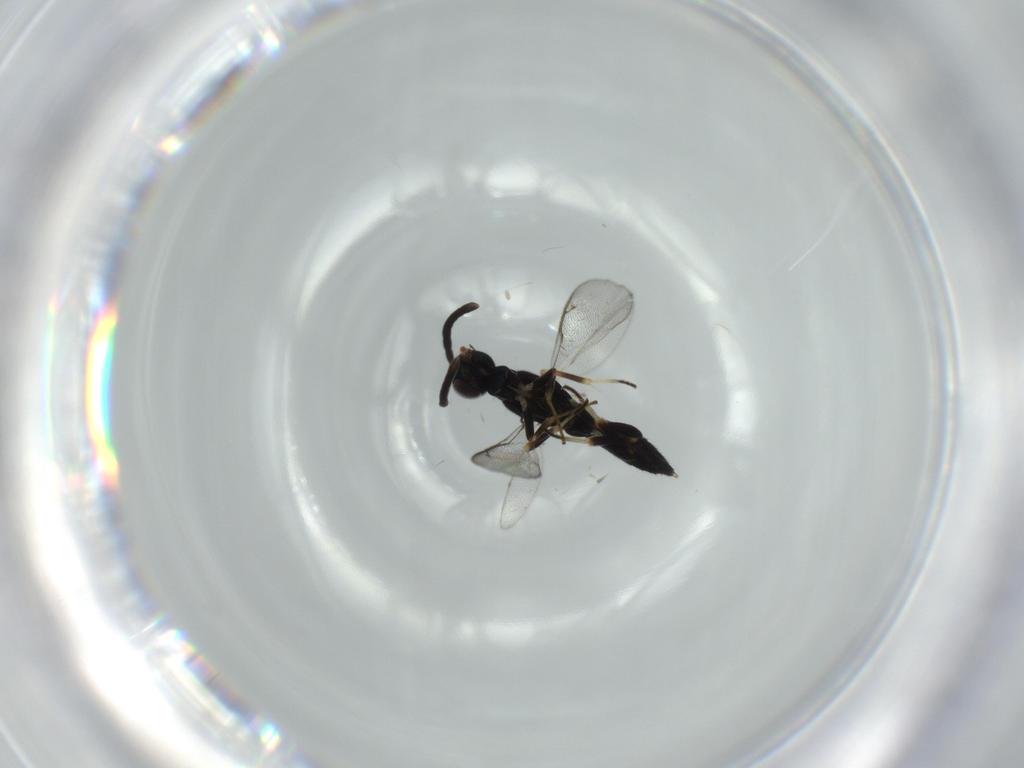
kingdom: Animalia
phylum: Arthropoda
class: Insecta
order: Hymenoptera
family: Eupelmidae
